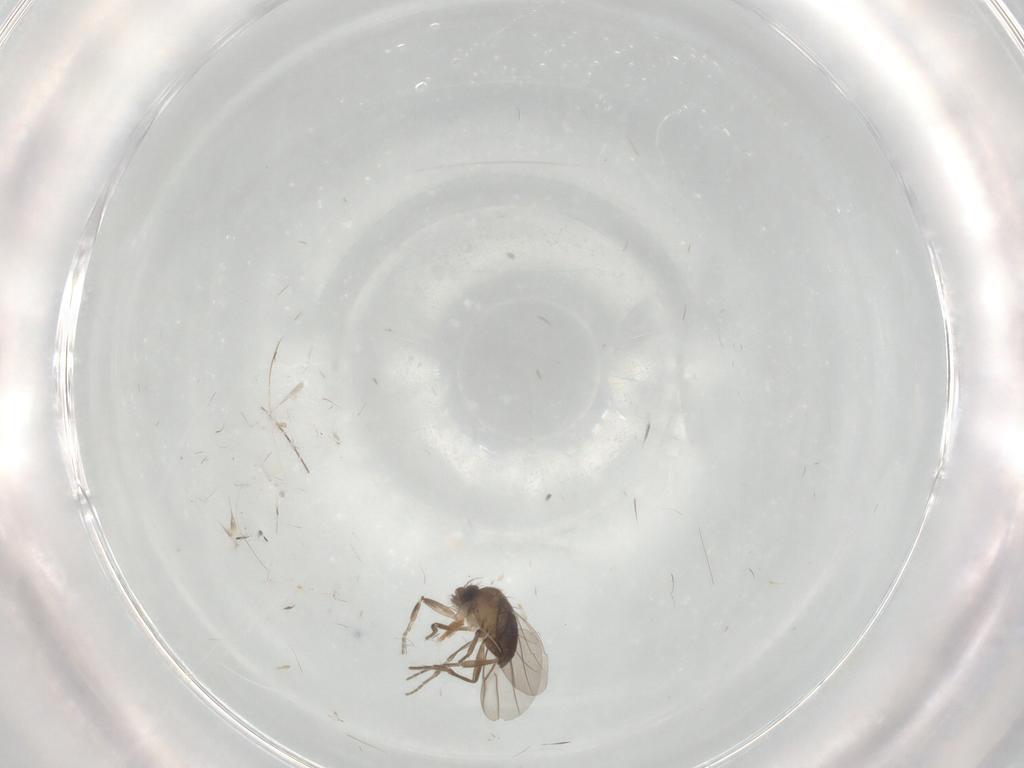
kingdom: Animalia
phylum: Arthropoda
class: Insecta
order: Diptera
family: Phoridae
